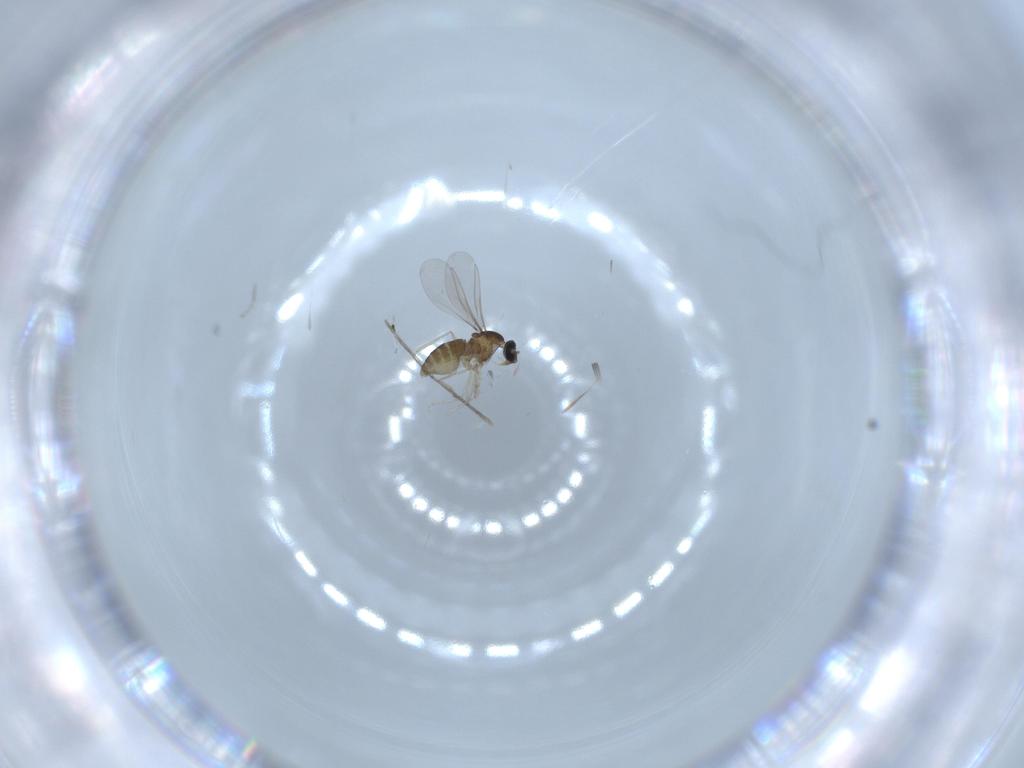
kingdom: Animalia
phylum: Arthropoda
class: Insecta
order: Diptera
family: Cecidomyiidae
